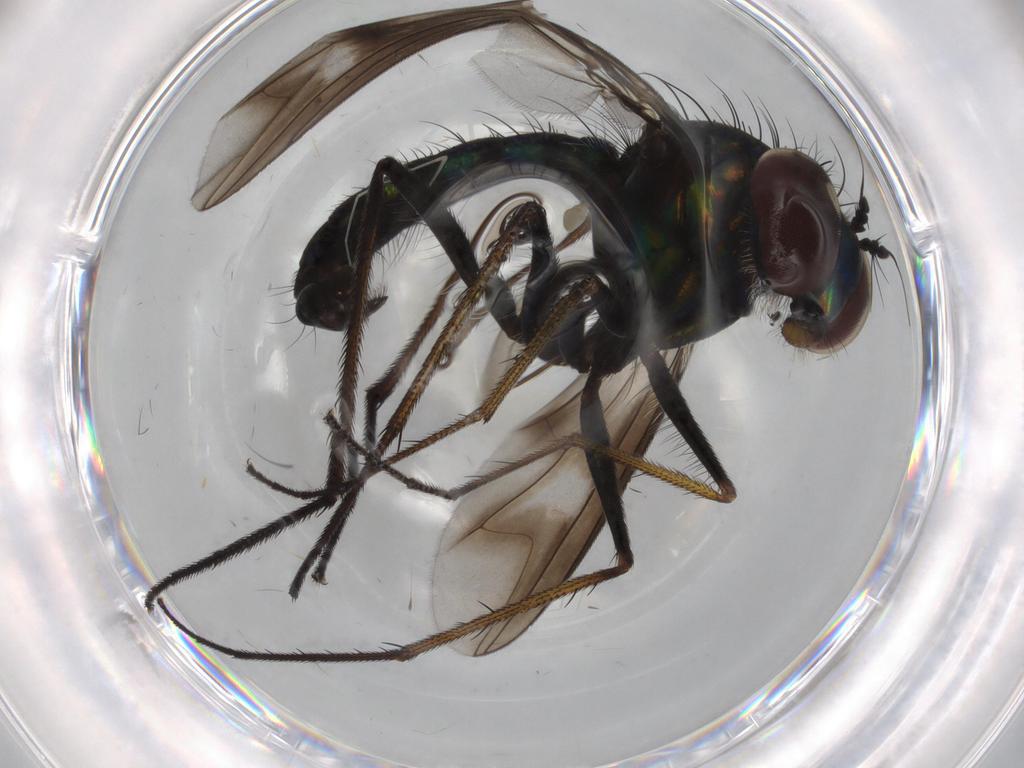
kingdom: Animalia
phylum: Arthropoda
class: Insecta
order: Diptera
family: Dolichopodidae
